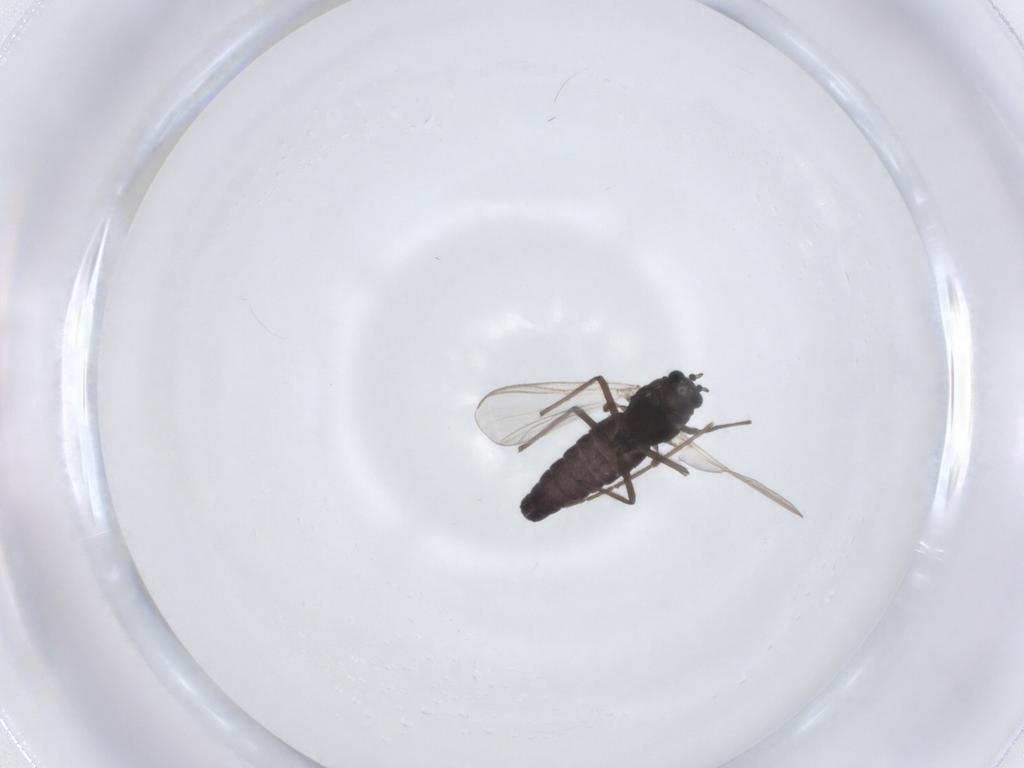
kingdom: Animalia
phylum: Arthropoda
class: Insecta
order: Diptera
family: Chironomidae
